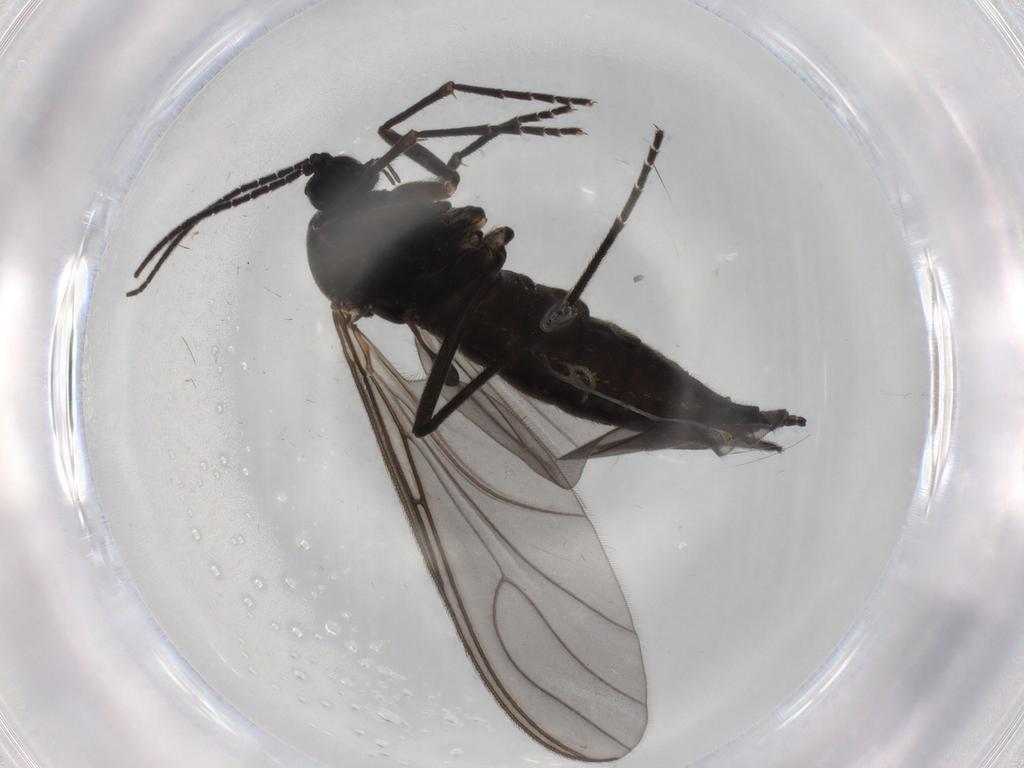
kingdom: Animalia
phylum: Arthropoda
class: Insecta
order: Diptera
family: Sciaridae
